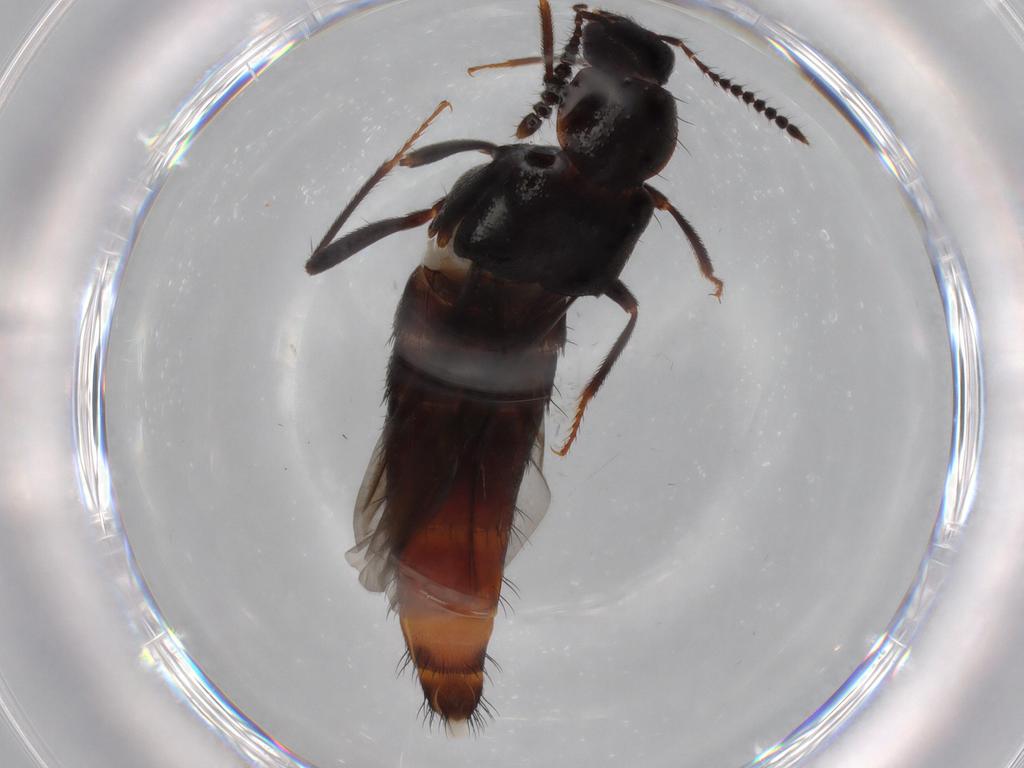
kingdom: Animalia
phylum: Arthropoda
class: Insecta
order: Coleoptera
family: Staphylinidae
